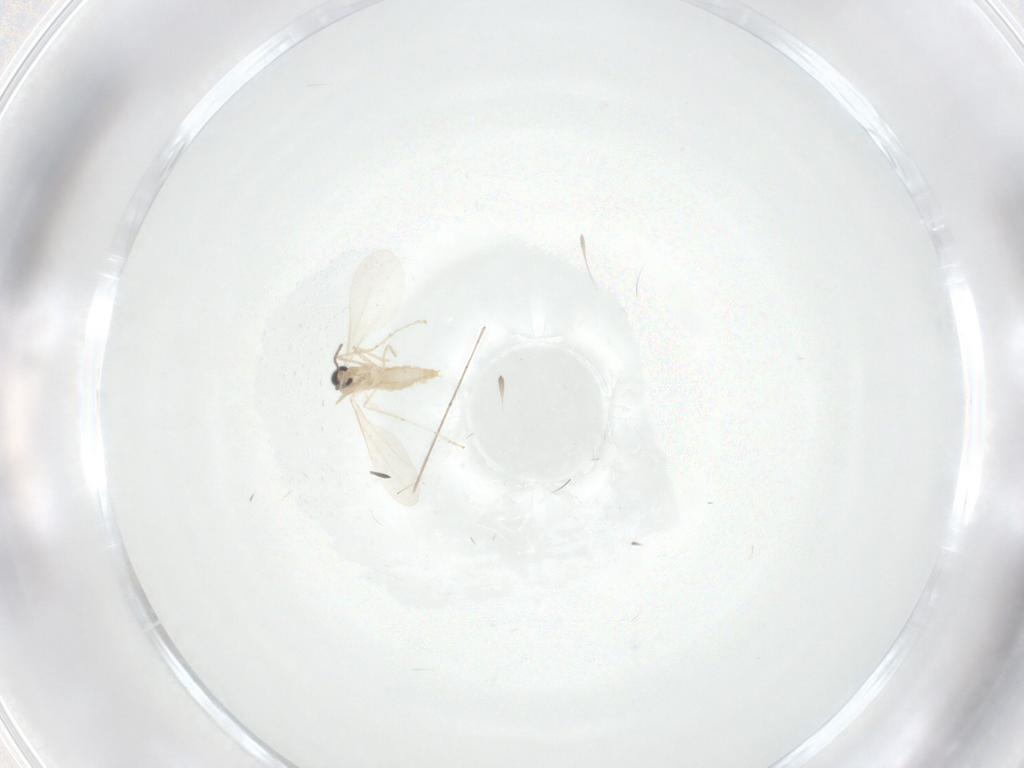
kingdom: Animalia
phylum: Arthropoda
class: Insecta
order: Diptera
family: Cecidomyiidae
